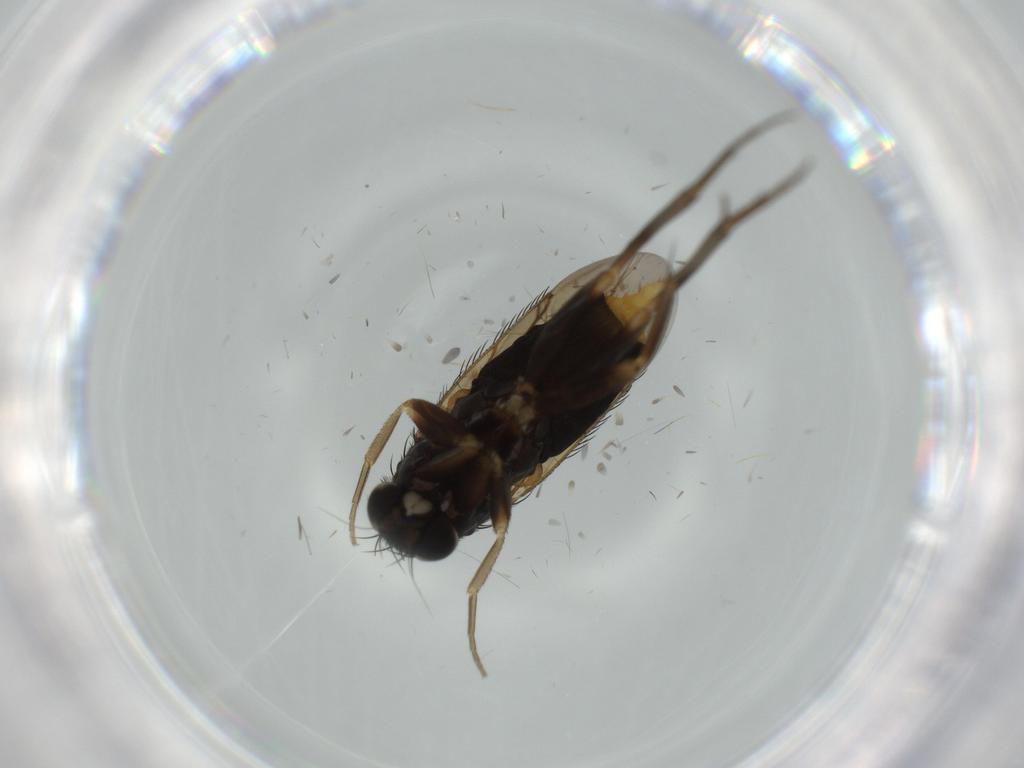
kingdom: Animalia
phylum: Arthropoda
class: Insecta
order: Diptera
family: Phoridae
